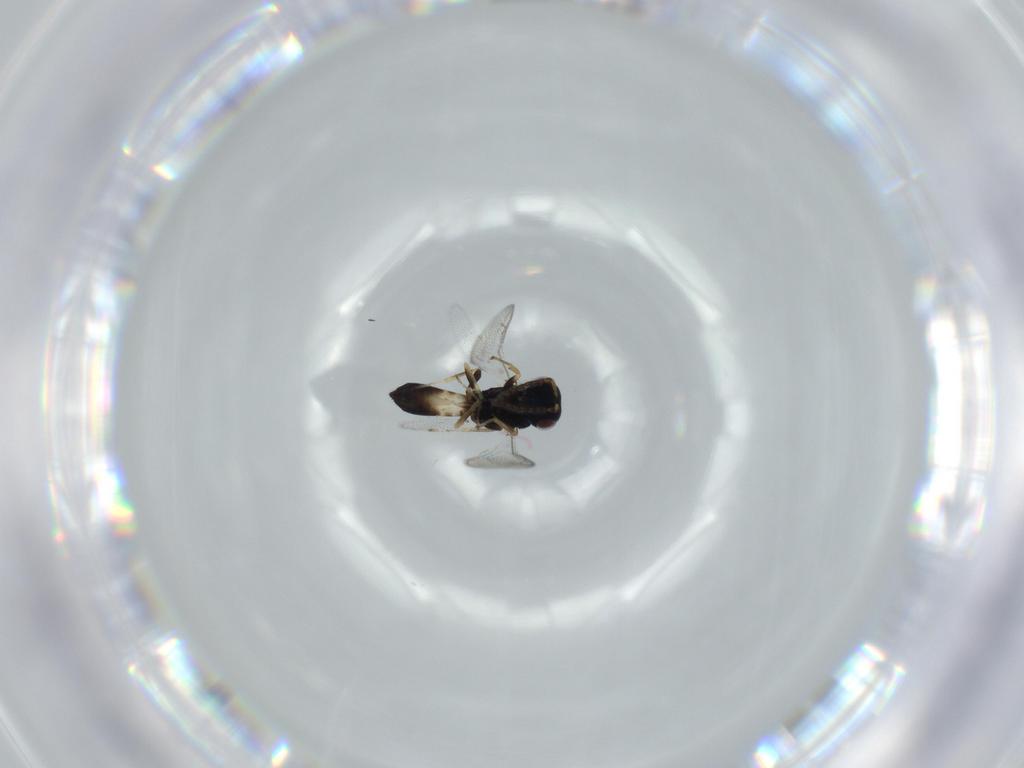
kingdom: Animalia
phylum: Arthropoda
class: Insecta
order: Hymenoptera
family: Pteromalidae
